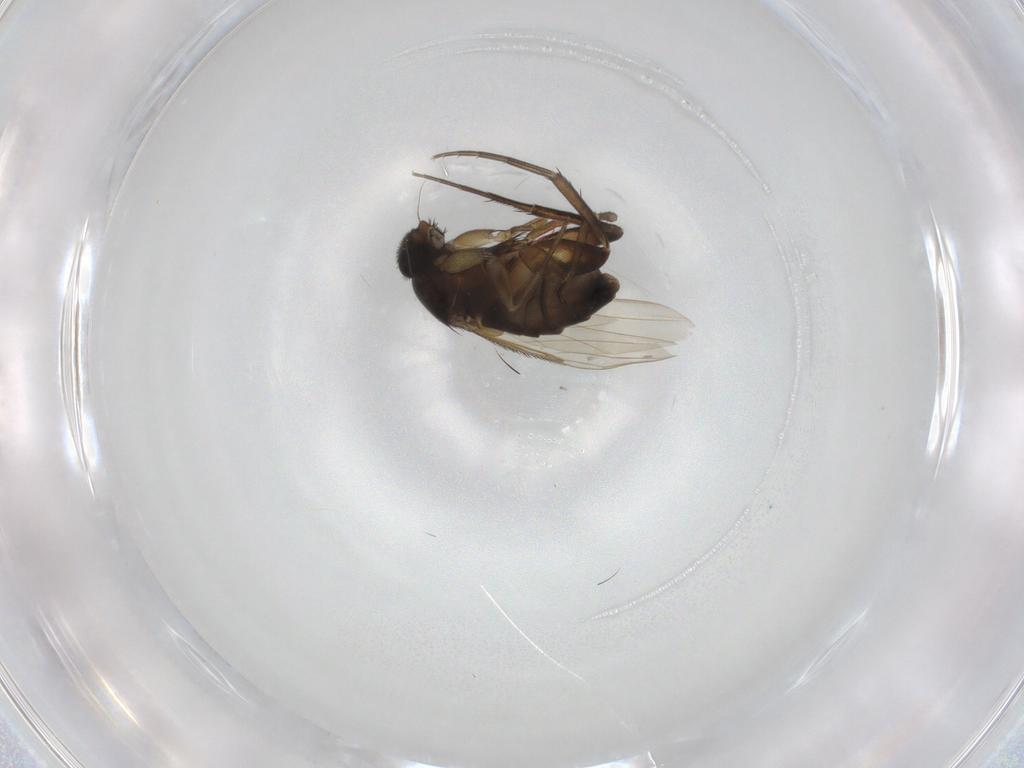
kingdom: Animalia
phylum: Arthropoda
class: Insecta
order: Diptera
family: Phoridae
